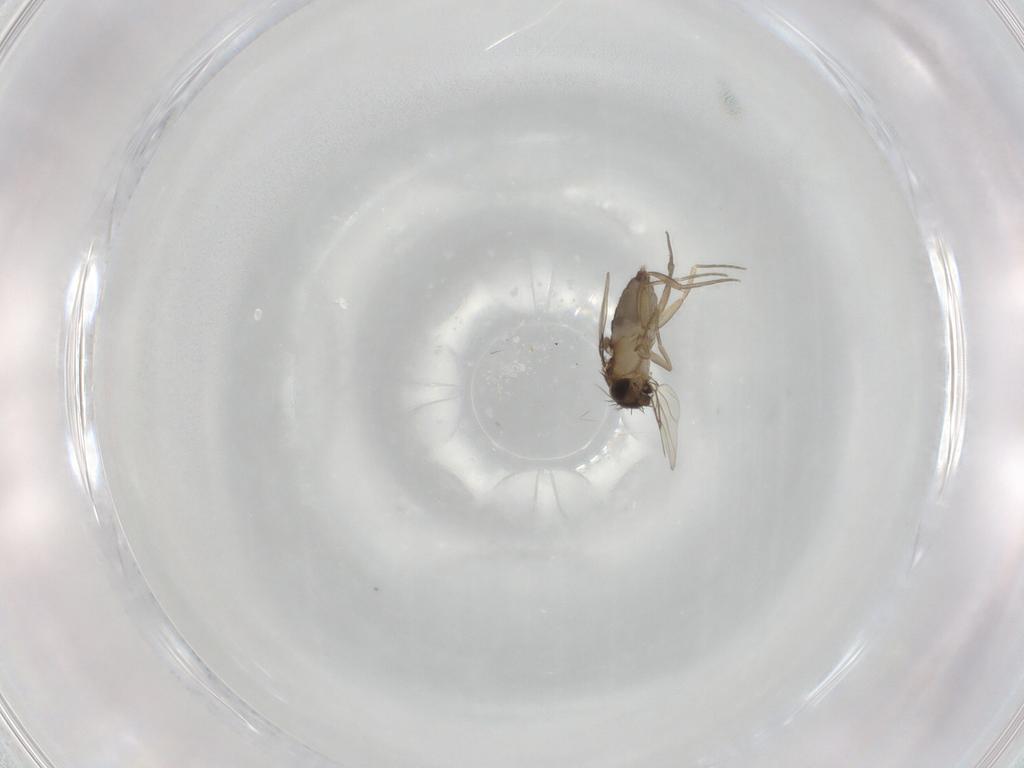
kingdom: Animalia
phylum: Arthropoda
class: Insecta
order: Diptera
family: Phoridae
